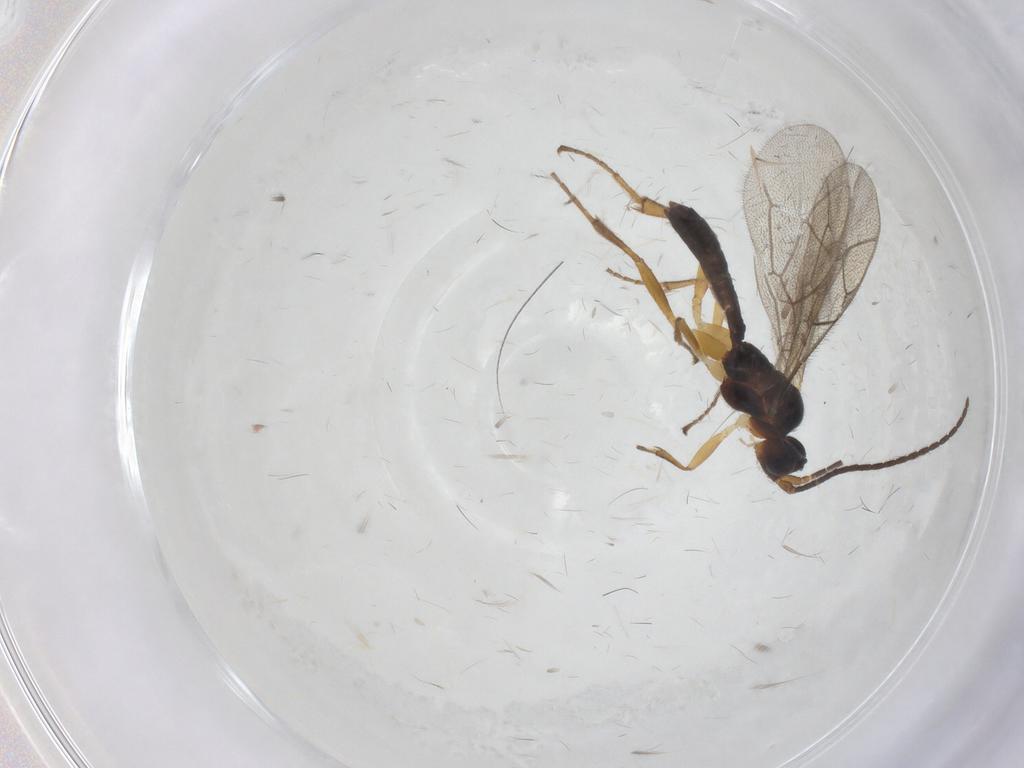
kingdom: Animalia
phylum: Arthropoda
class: Insecta
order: Hymenoptera
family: Ichneumonidae
